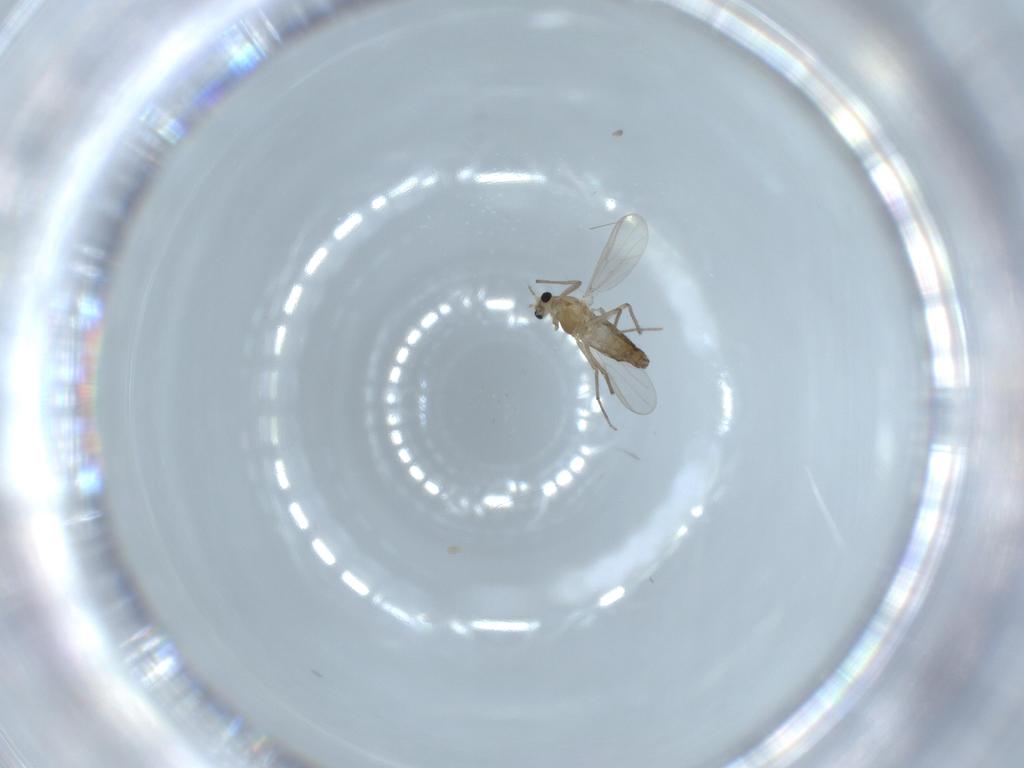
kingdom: Animalia
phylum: Arthropoda
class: Insecta
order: Diptera
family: Chironomidae
